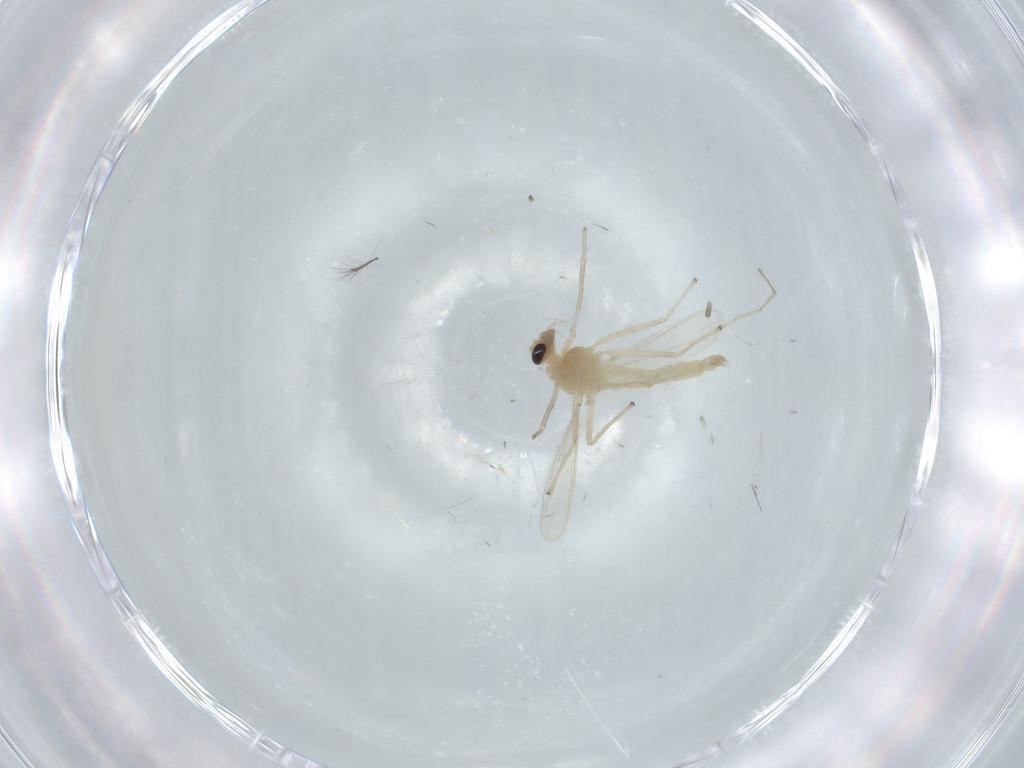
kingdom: Animalia
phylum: Arthropoda
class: Insecta
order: Diptera
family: Chironomidae
